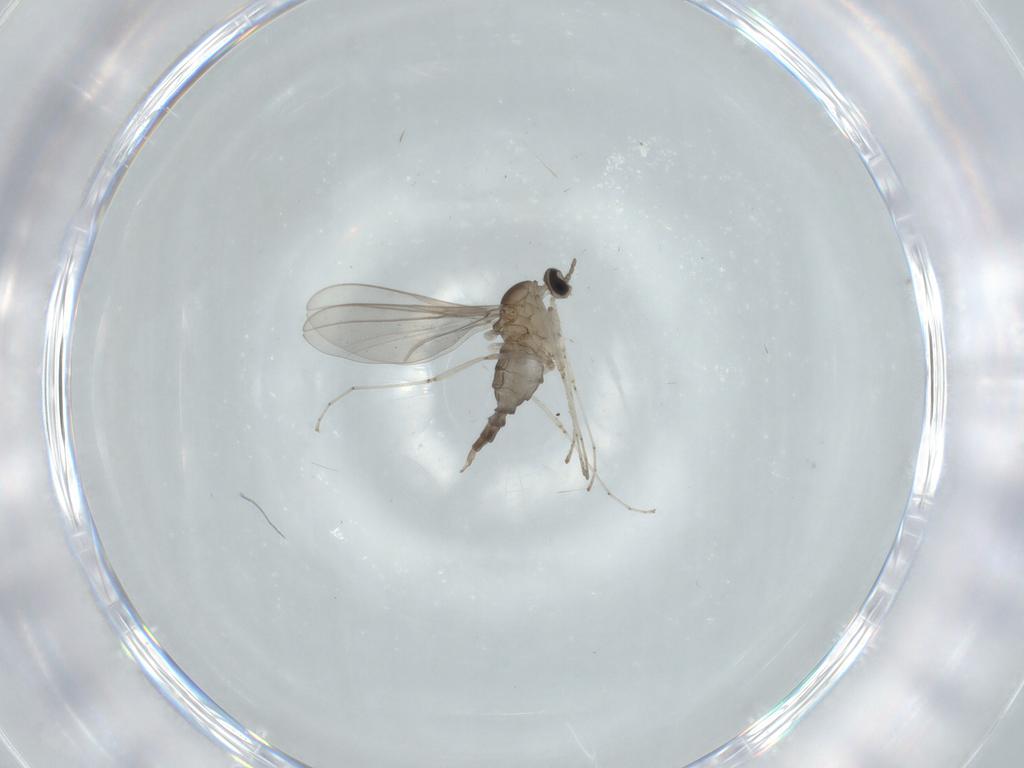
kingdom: Animalia
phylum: Arthropoda
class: Insecta
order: Diptera
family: Cecidomyiidae
